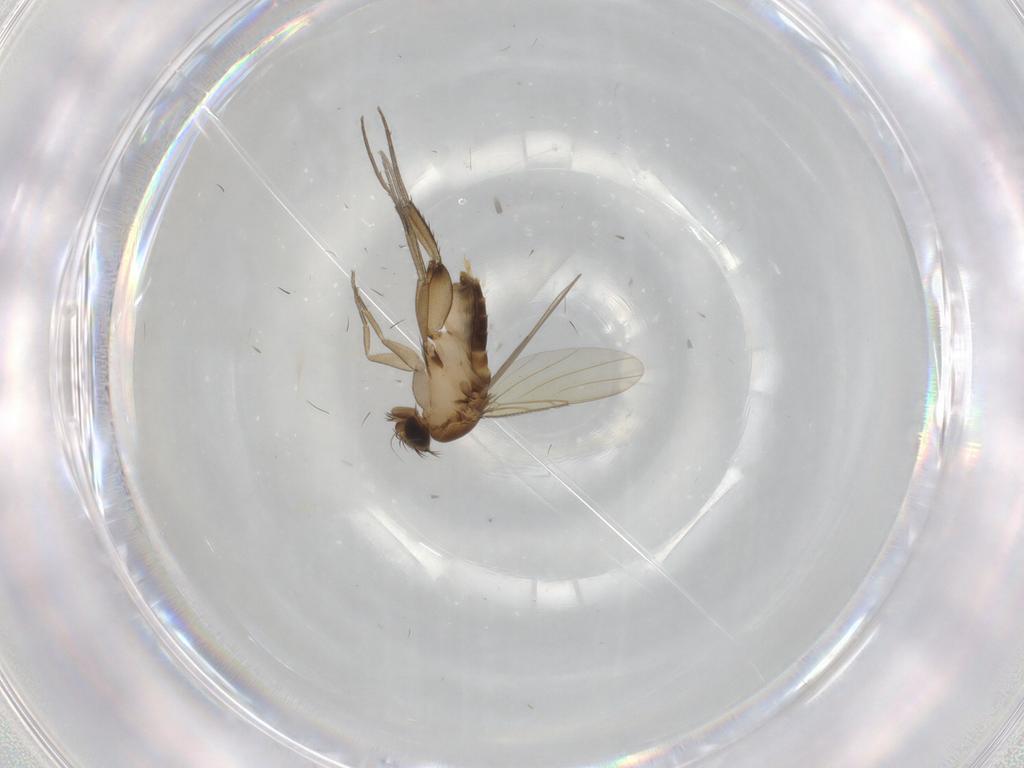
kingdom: Animalia
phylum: Arthropoda
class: Insecta
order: Diptera
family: Phoridae
